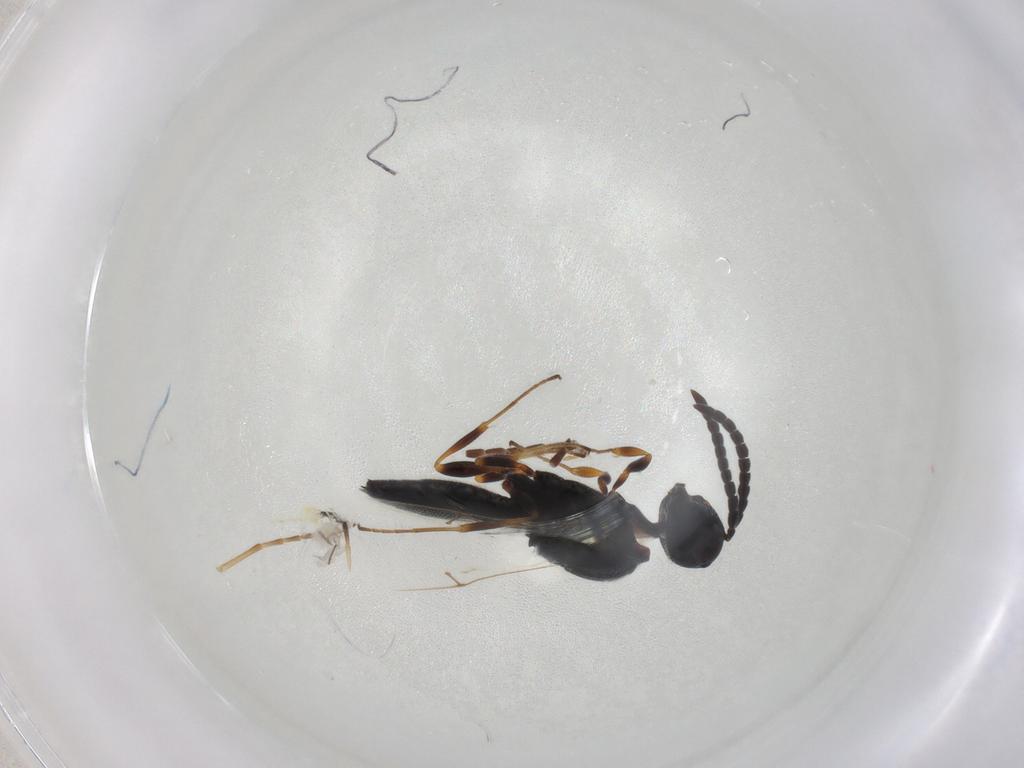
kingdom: Animalia
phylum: Arthropoda
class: Insecta
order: Hymenoptera
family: Scelionidae
